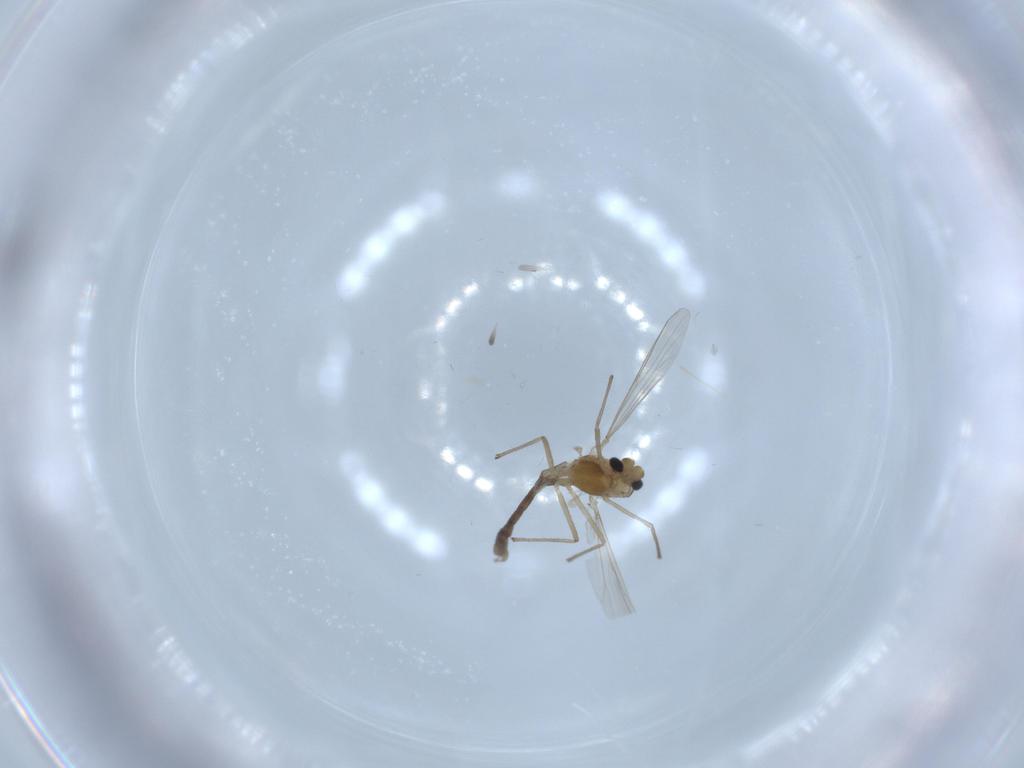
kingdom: Animalia
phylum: Arthropoda
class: Insecta
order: Diptera
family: Chironomidae
